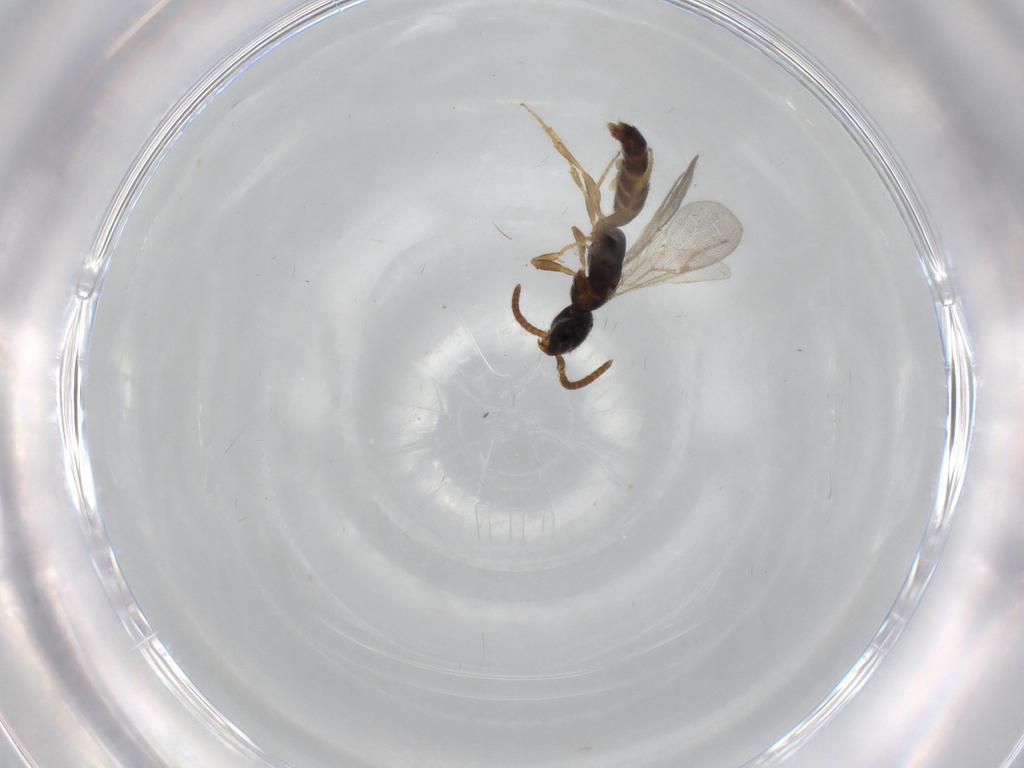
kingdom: Animalia
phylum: Arthropoda
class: Insecta
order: Hymenoptera
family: Bethylidae
